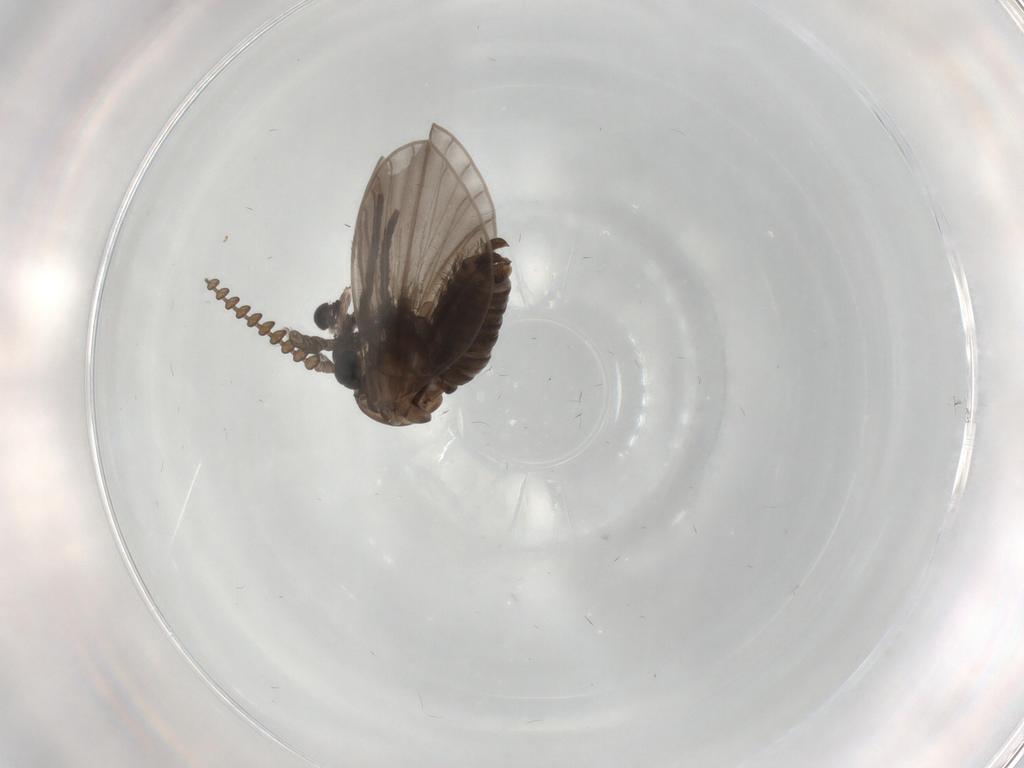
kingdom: Animalia
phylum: Arthropoda
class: Insecta
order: Diptera
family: Psychodidae
